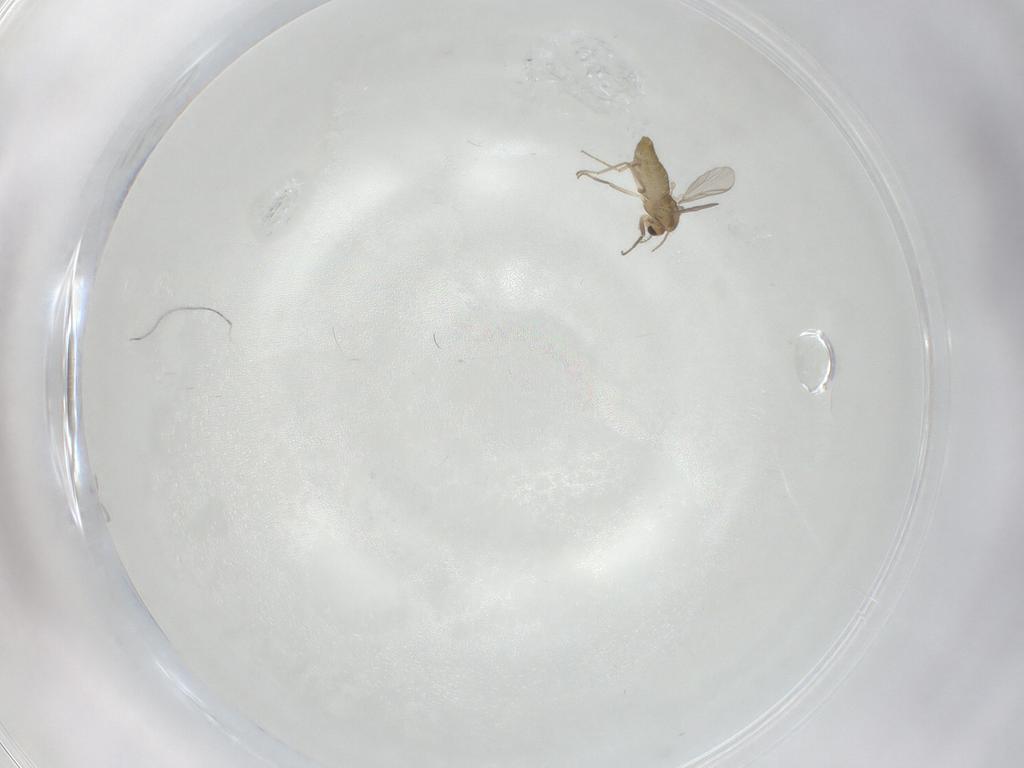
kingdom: Animalia
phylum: Arthropoda
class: Insecta
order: Diptera
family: Chironomidae
